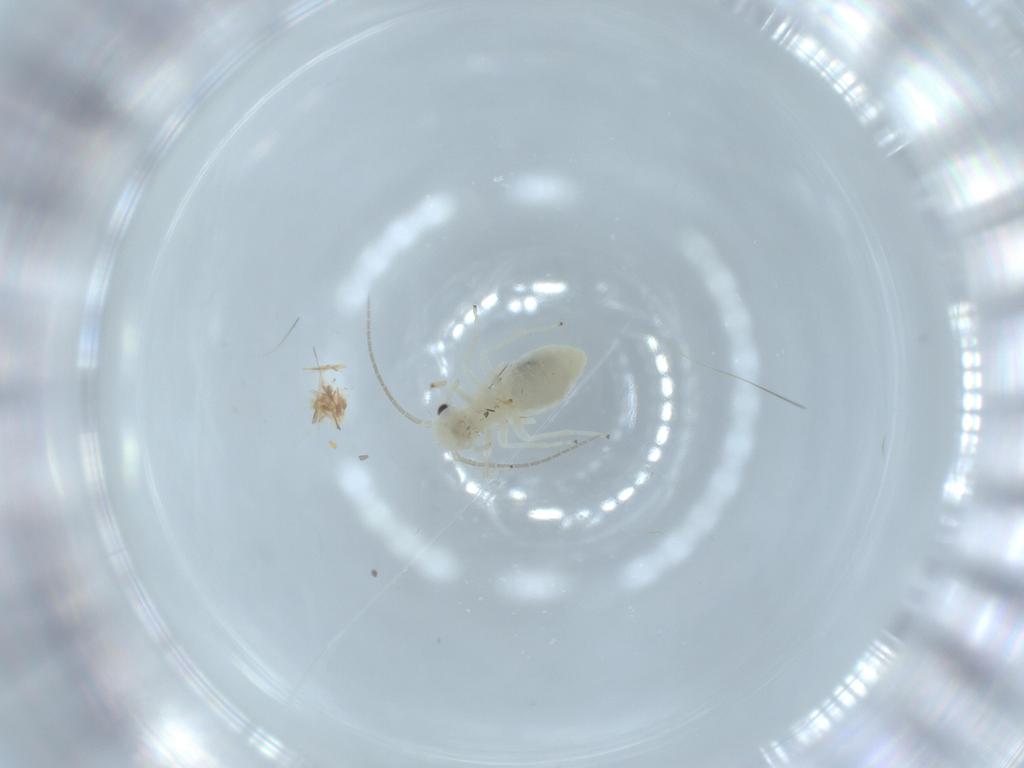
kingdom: Animalia
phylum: Arthropoda
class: Insecta
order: Psocodea
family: Caeciliusidae
